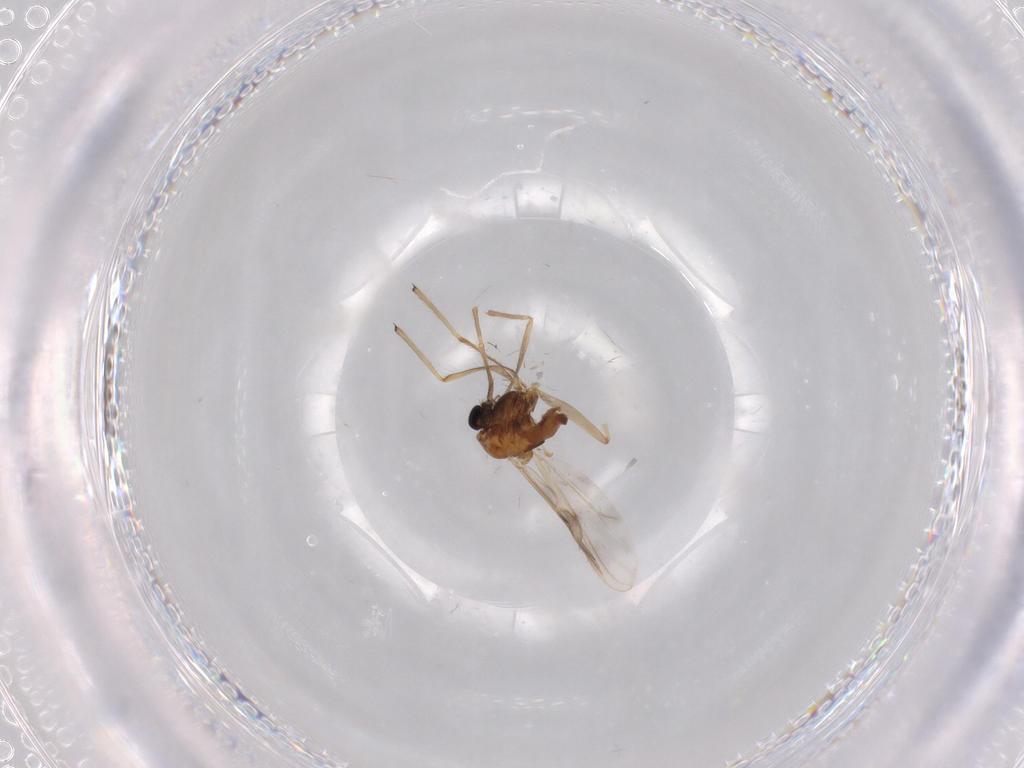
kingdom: Animalia
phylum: Arthropoda
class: Insecta
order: Diptera
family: Chironomidae
